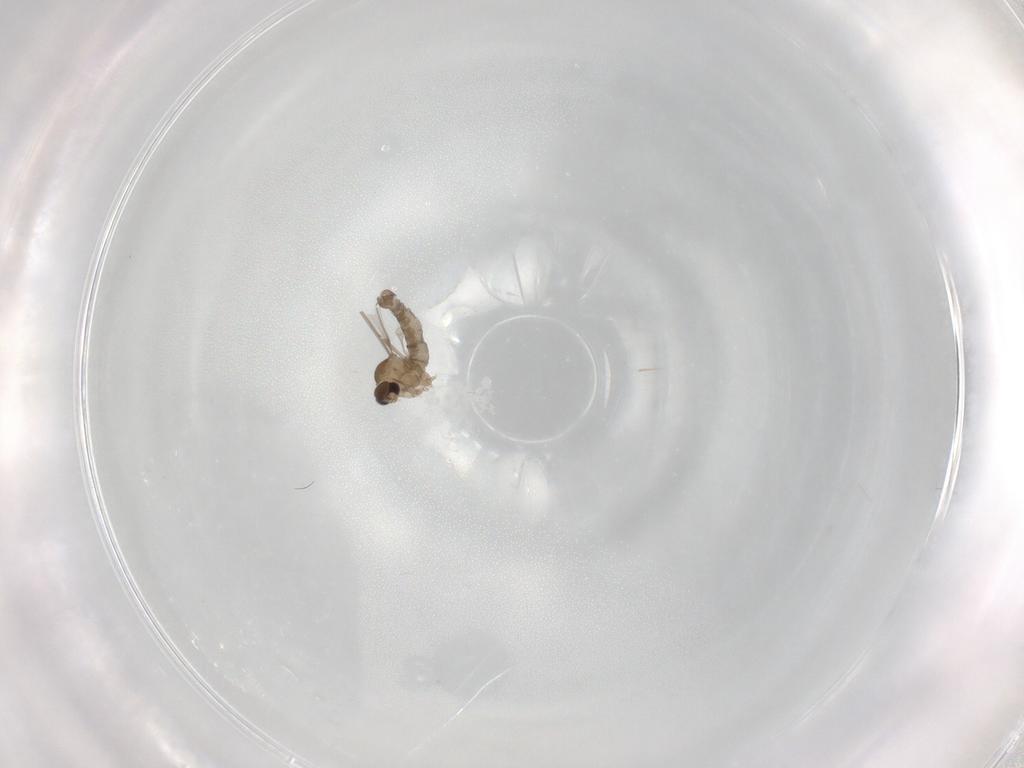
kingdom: Animalia
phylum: Arthropoda
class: Insecta
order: Diptera
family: Cecidomyiidae
